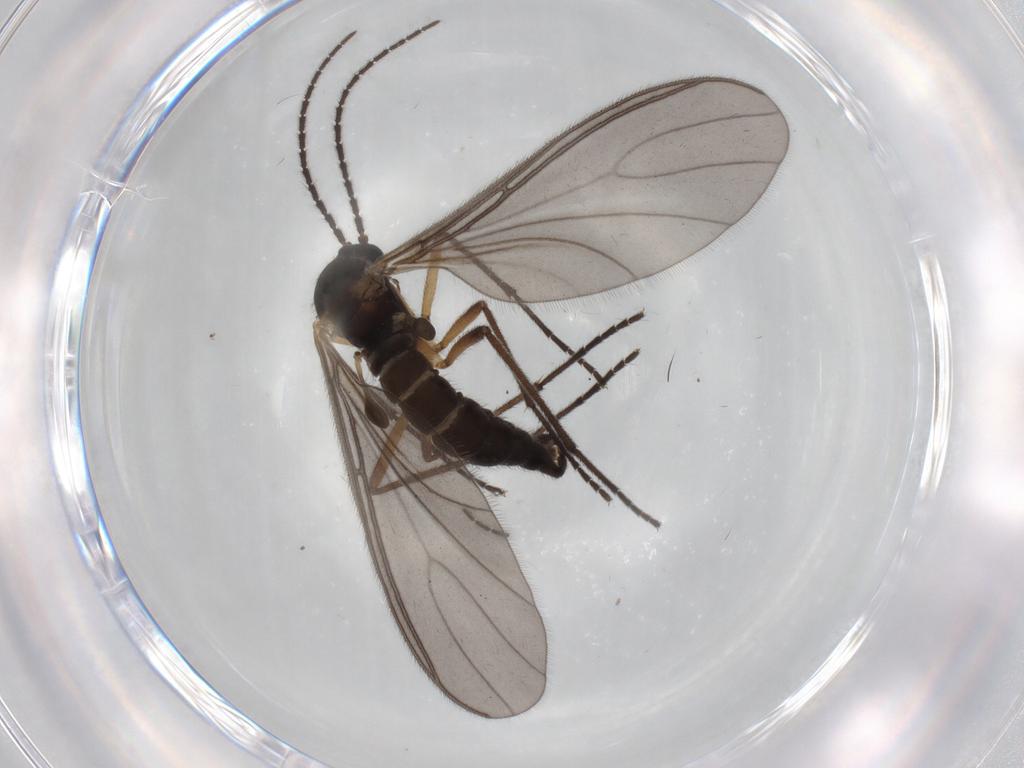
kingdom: Animalia
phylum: Arthropoda
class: Insecta
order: Diptera
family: Sciaridae
